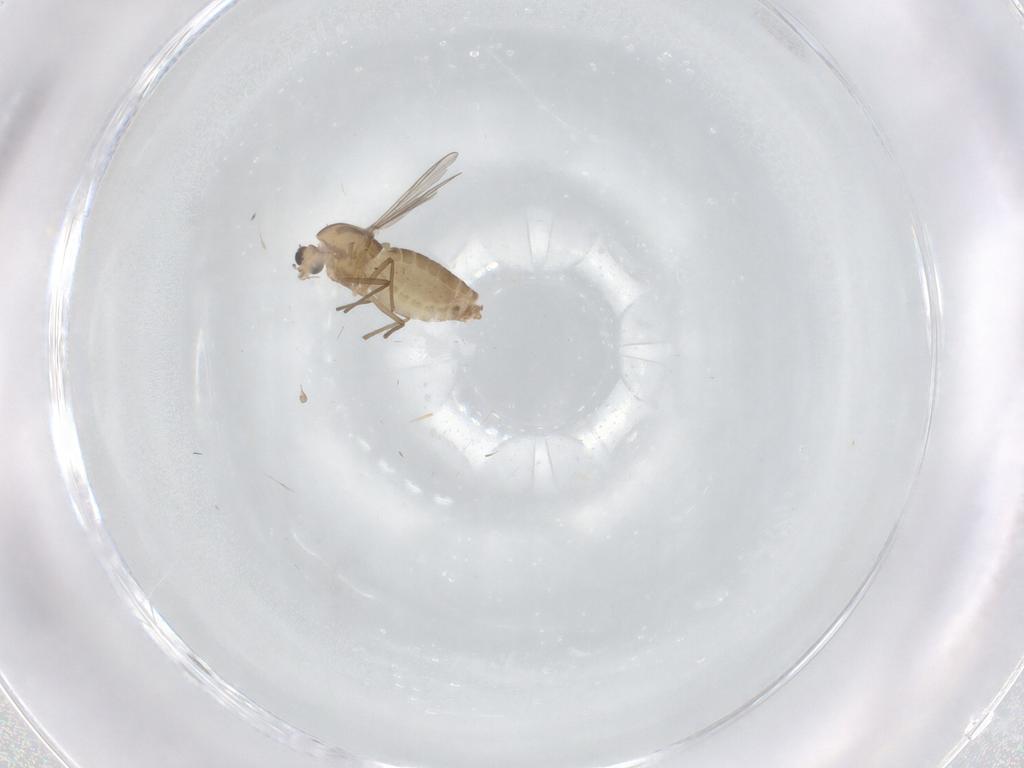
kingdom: Animalia
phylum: Arthropoda
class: Insecta
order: Diptera
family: Chironomidae
